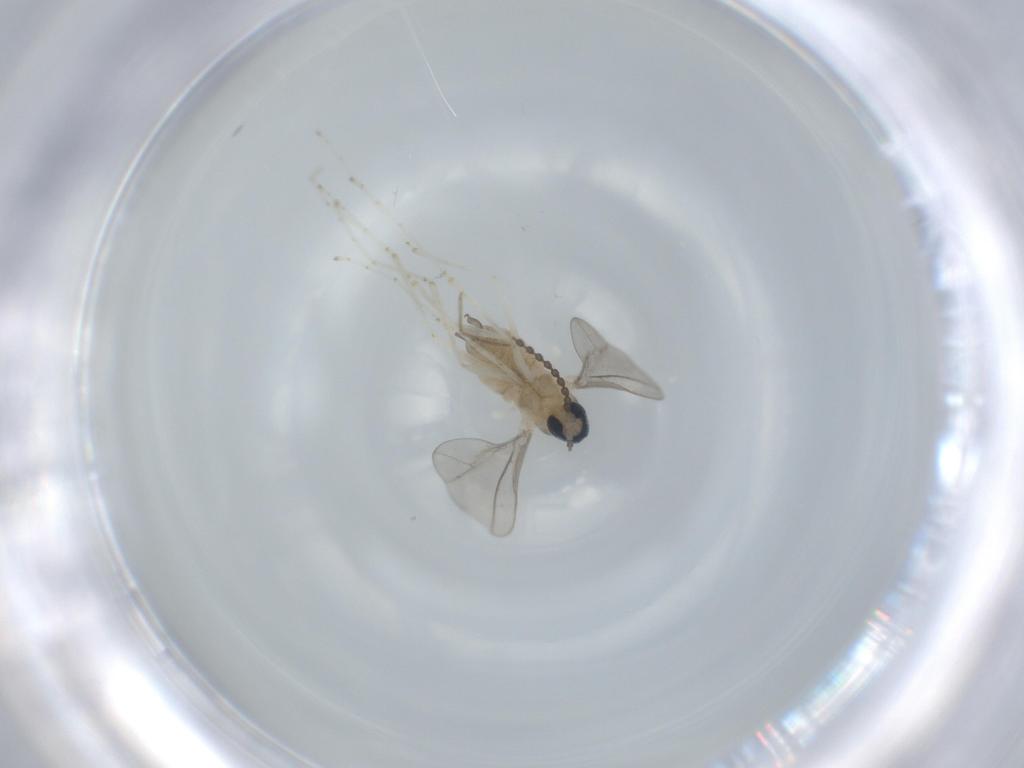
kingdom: Animalia
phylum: Arthropoda
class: Insecta
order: Diptera
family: Cecidomyiidae
